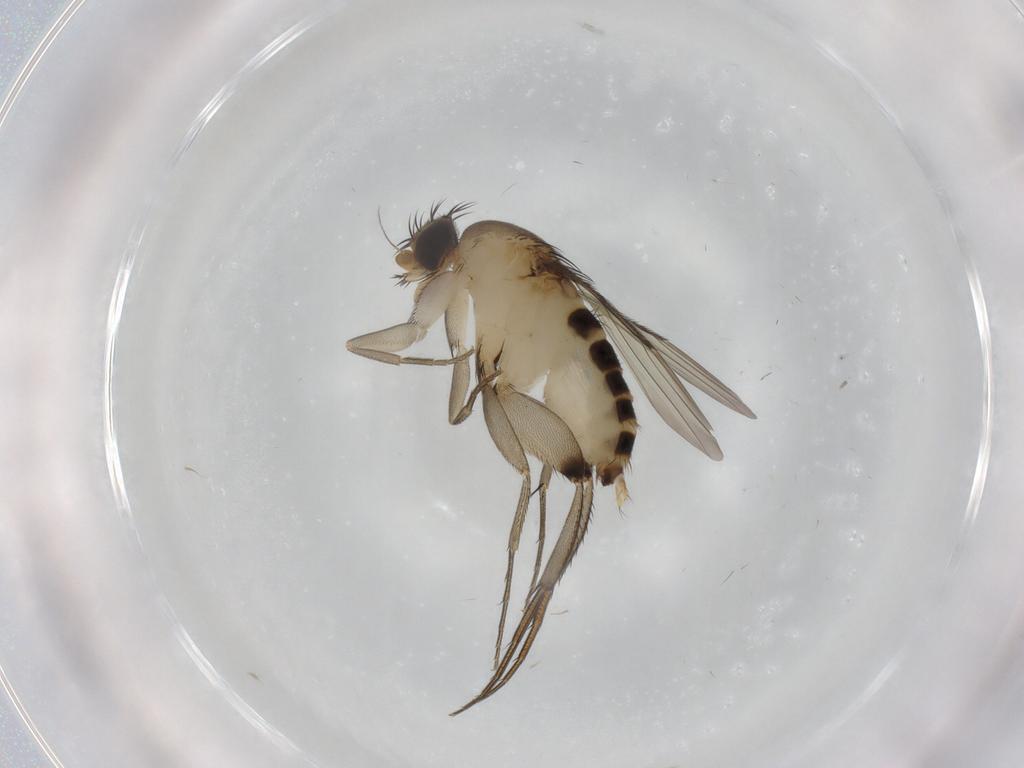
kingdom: Animalia
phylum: Arthropoda
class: Insecta
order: Diptera
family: Phoridae
